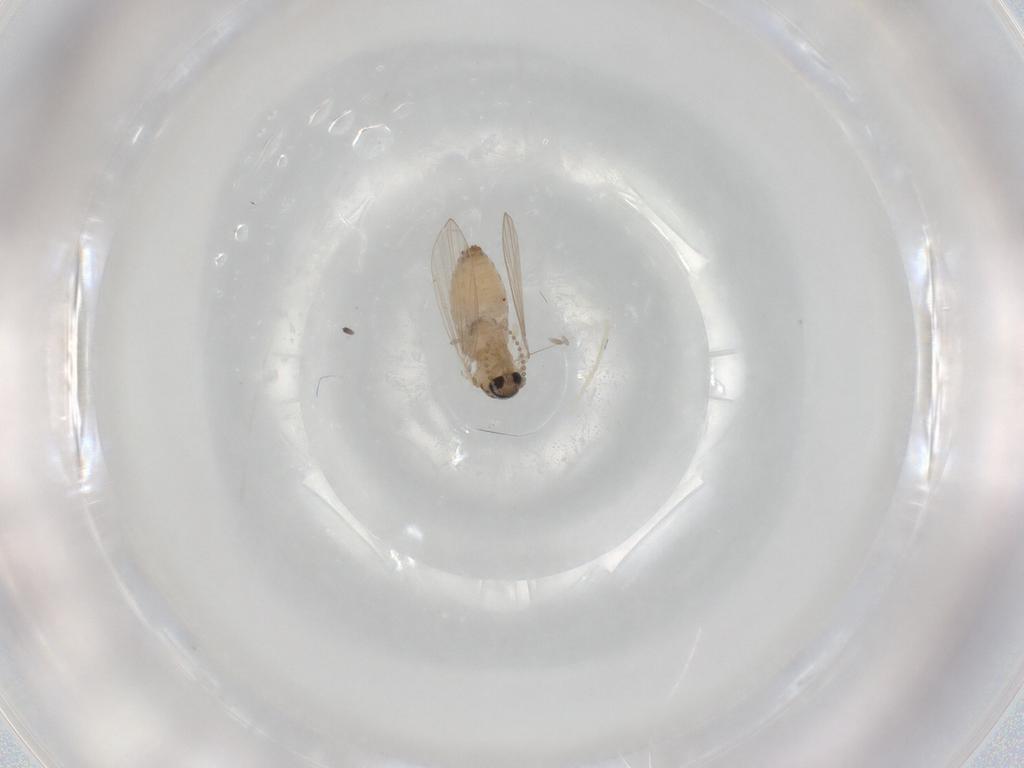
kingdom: Animalia
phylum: Arthropoda
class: Insecta
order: Diptera
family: Psychodidae
